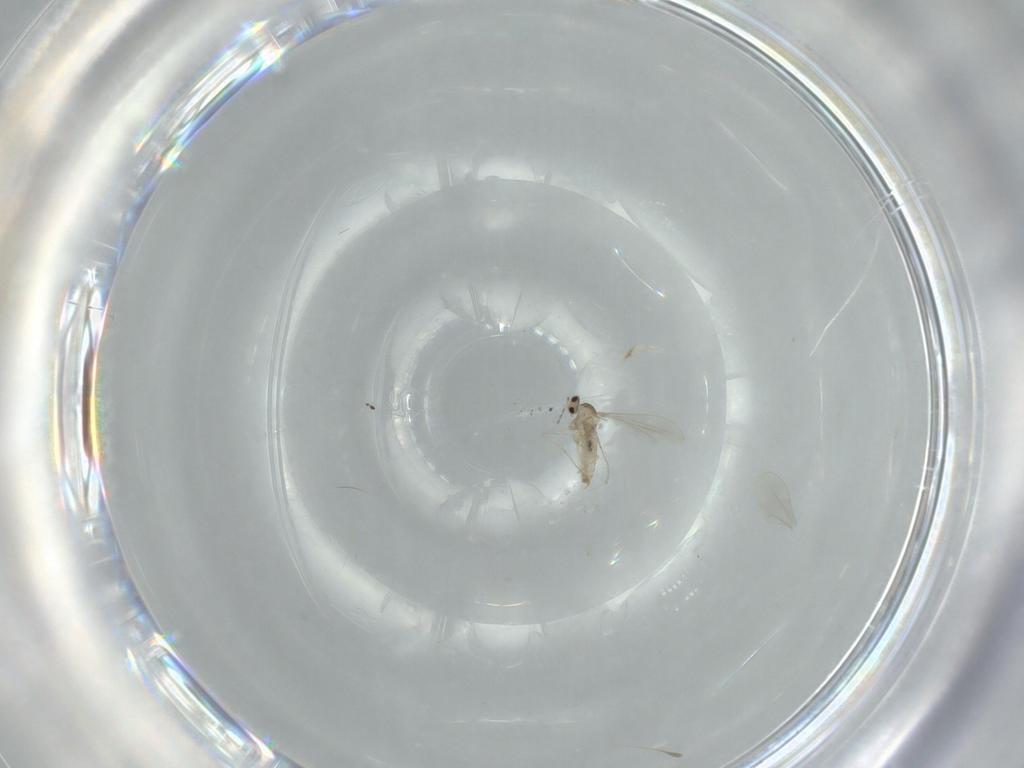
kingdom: Animalia
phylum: Arthropoda
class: Insecta
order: Diptera
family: Cecidomyiidae
